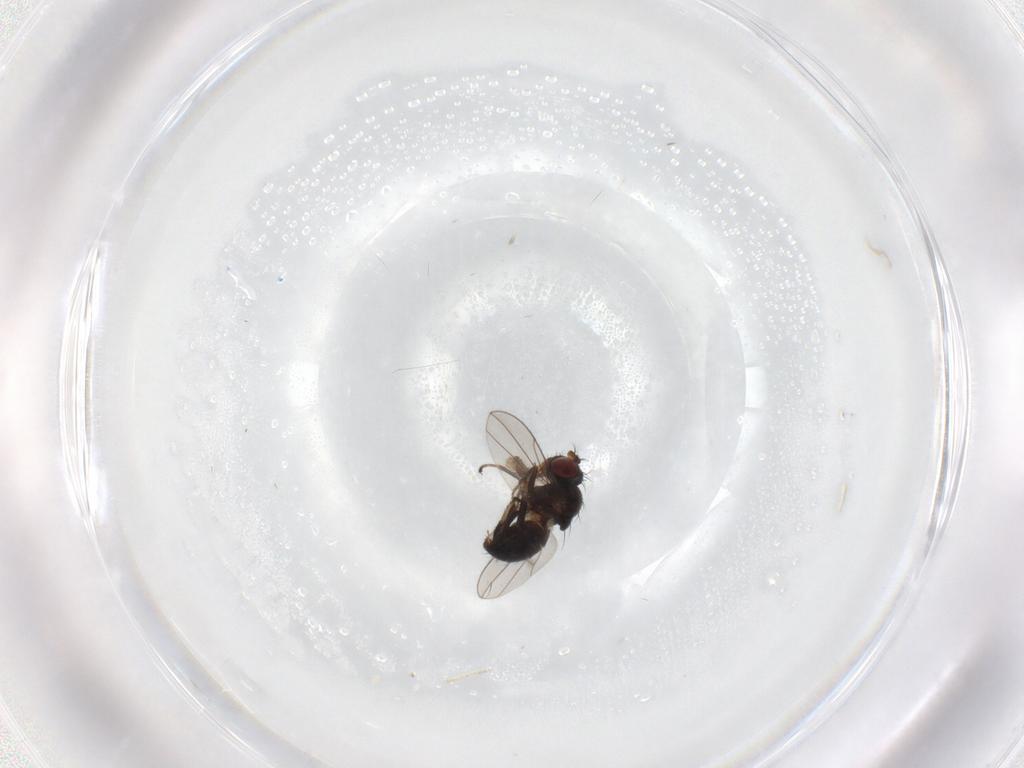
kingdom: Animalia
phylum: Arthropoda
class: Insecta
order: Diptera
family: Ephydridae
